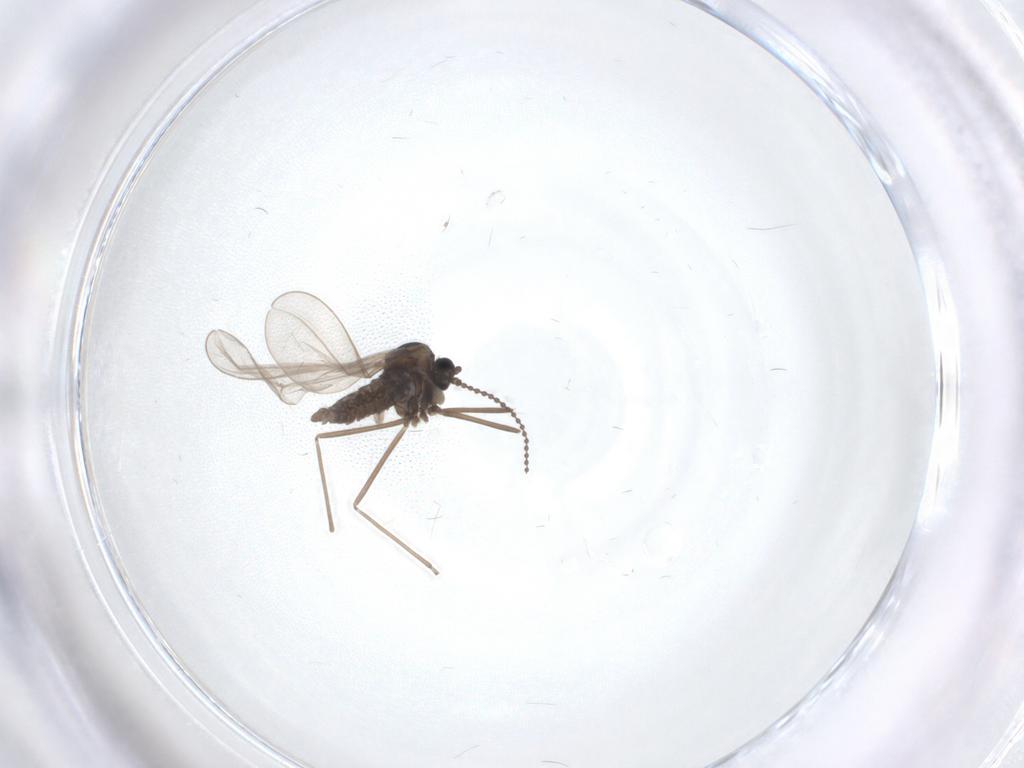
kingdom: Animalia
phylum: Arthropoda
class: Insecta
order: Diptera
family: Cecidomyiidae
